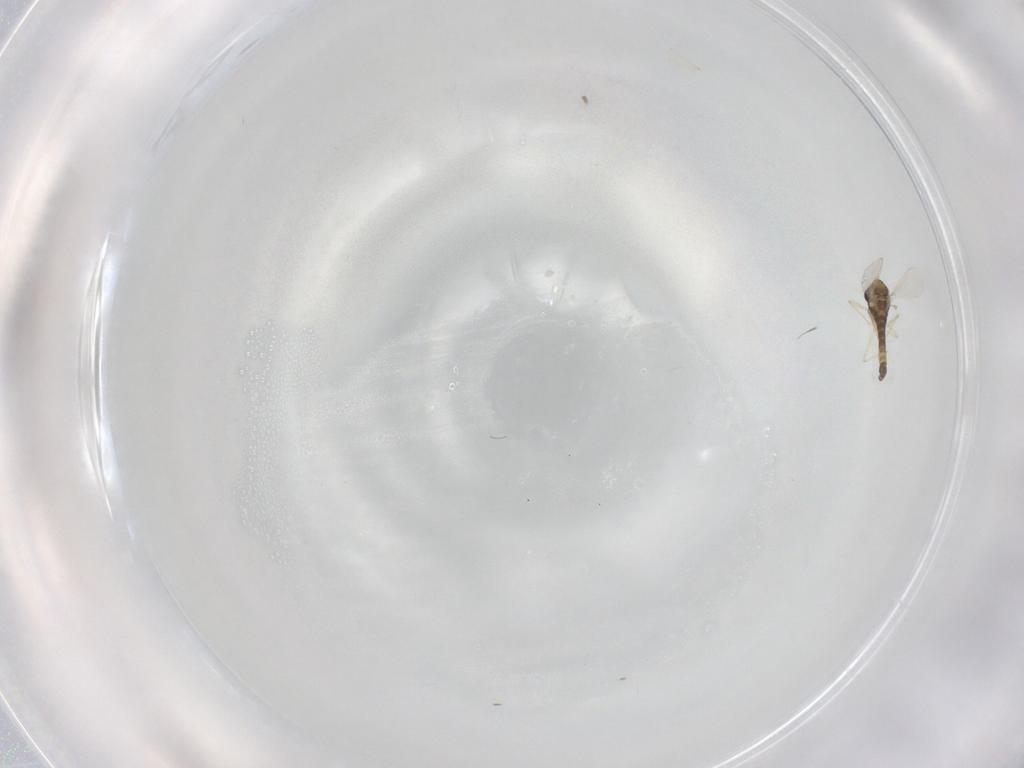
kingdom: Animalia
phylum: Arthropoda
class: Insecta
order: Diptera
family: Chironomidae
